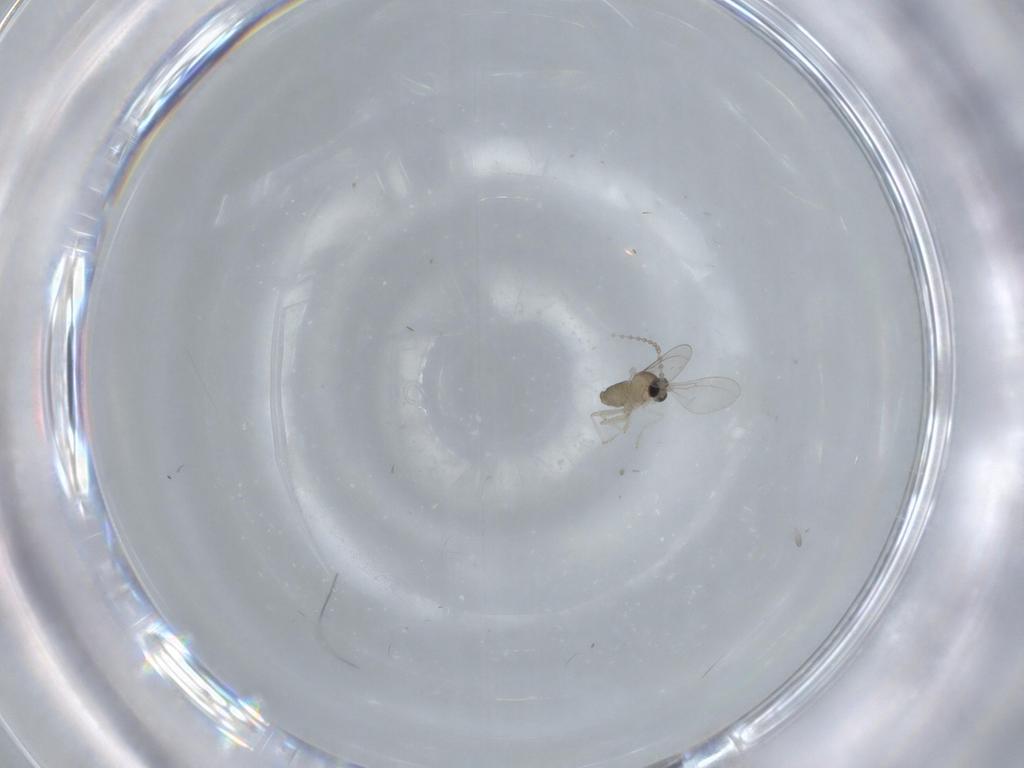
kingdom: Animalia
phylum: Arthropoda
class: Insecta
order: Diptera
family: Cecidomyiidae
